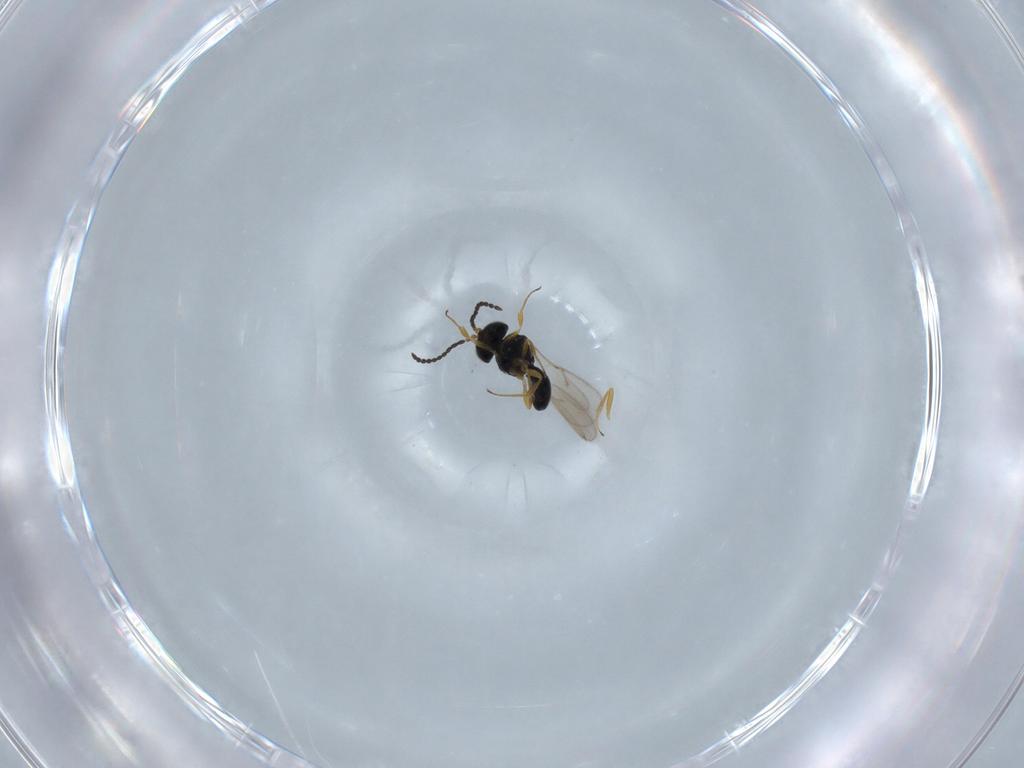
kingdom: Animalia
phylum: Arthropoda
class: Insecta
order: Hymenoptera
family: Scelionidae
